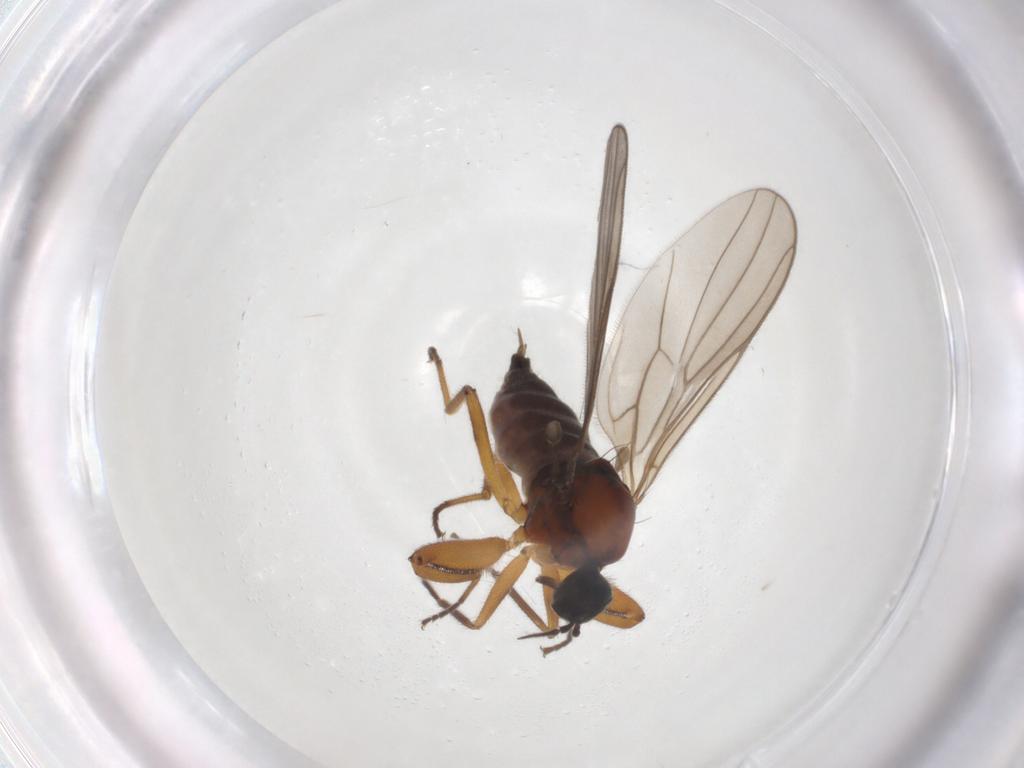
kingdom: Animalia
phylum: Arthropoda
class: Insecta
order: Diptera
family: Hybotidae
